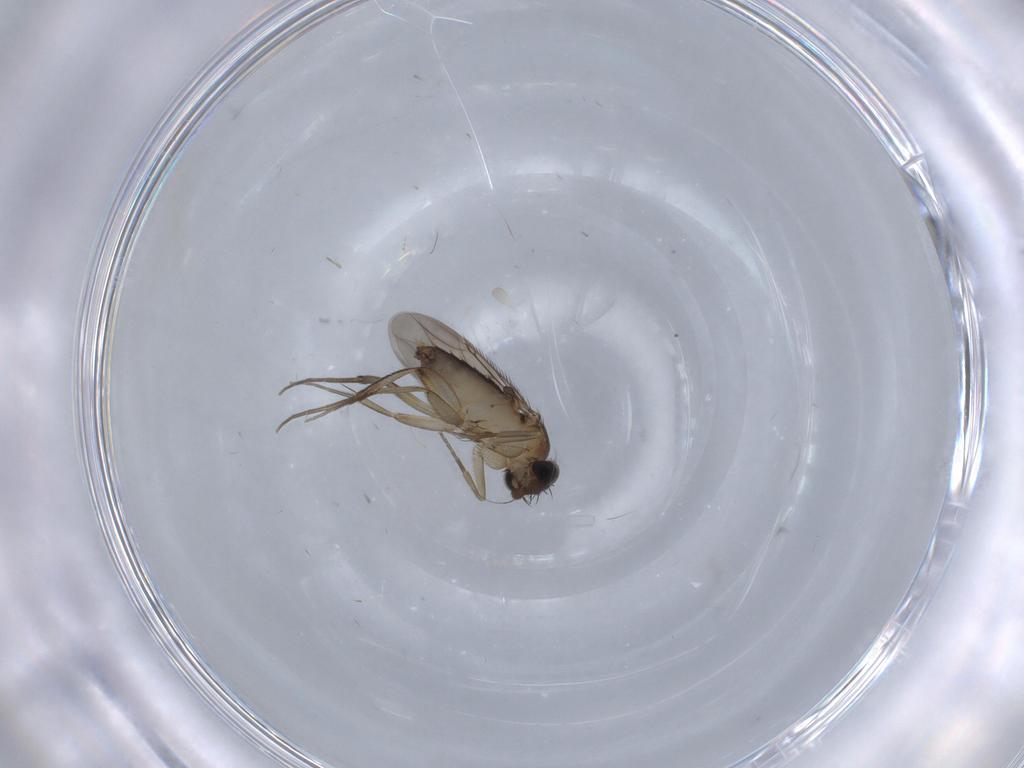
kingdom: Animalia
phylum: Arthropoda
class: Insecta
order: Diptera
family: Phoridae
